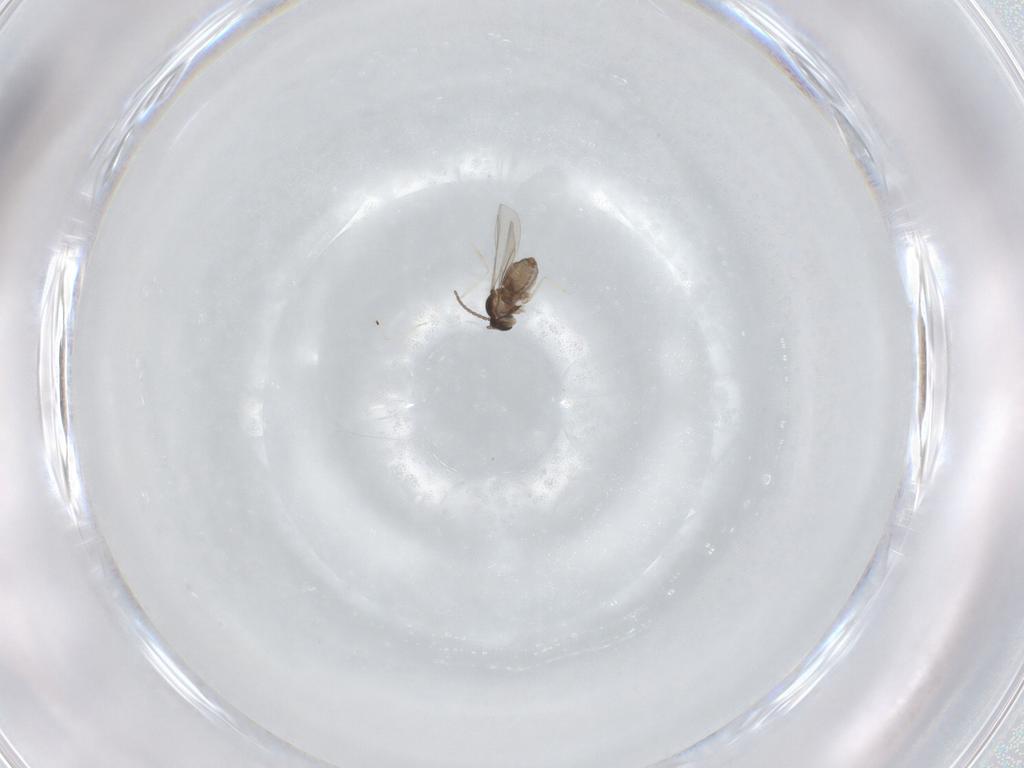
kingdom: Animalia
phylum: Arthropoda
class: Insecta
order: Diptera
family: Cecidomyiidae
